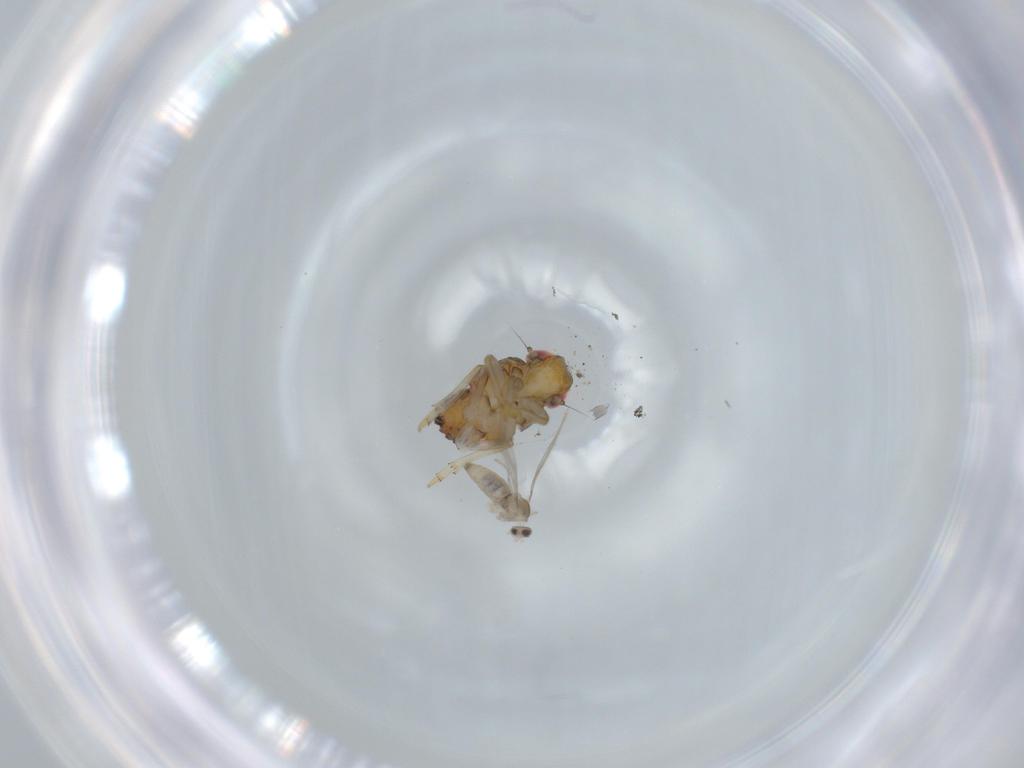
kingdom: Animalia
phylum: Arthropoda
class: Insecta
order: Hemiptera
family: Issidae
